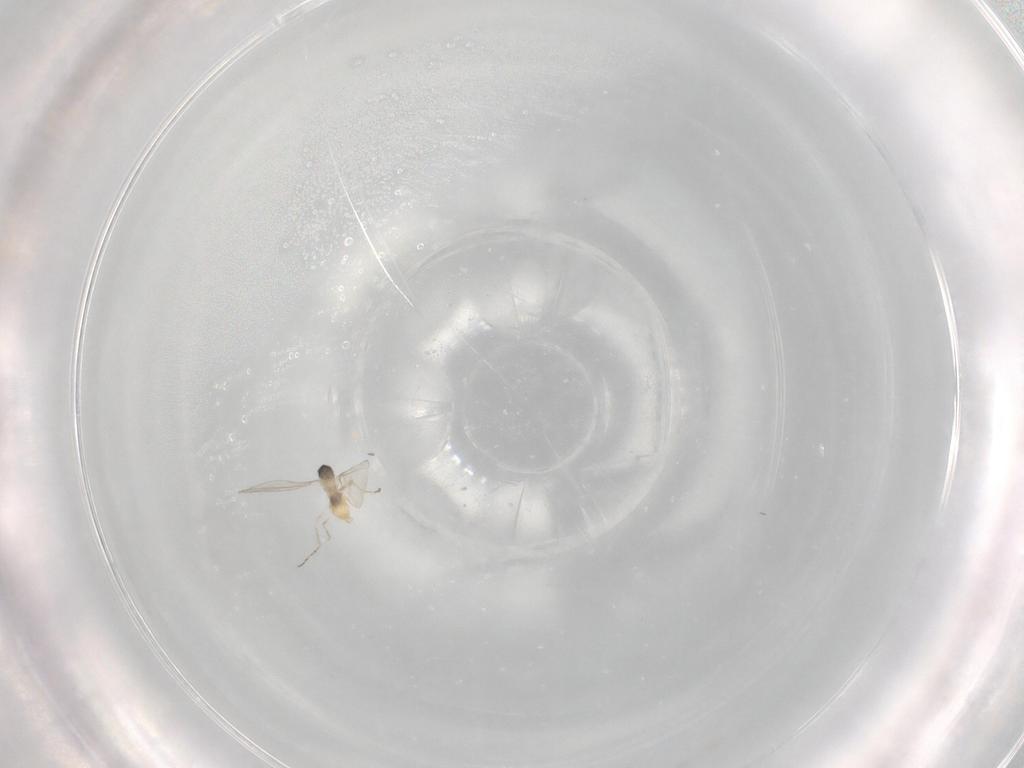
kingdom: Animalia
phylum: Arthropoda
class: Insecta
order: Diptera
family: Cecidomyiidae
